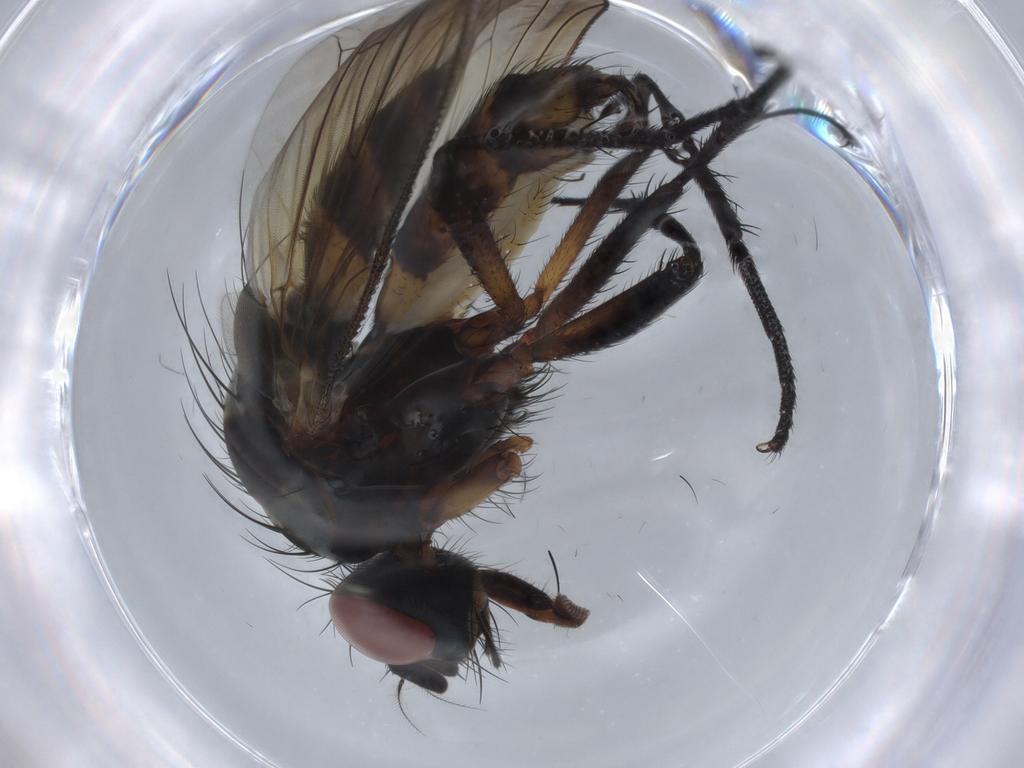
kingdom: Animalia
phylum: Arthropoda
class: Insecta
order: Diptera
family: Anthomyiidae
